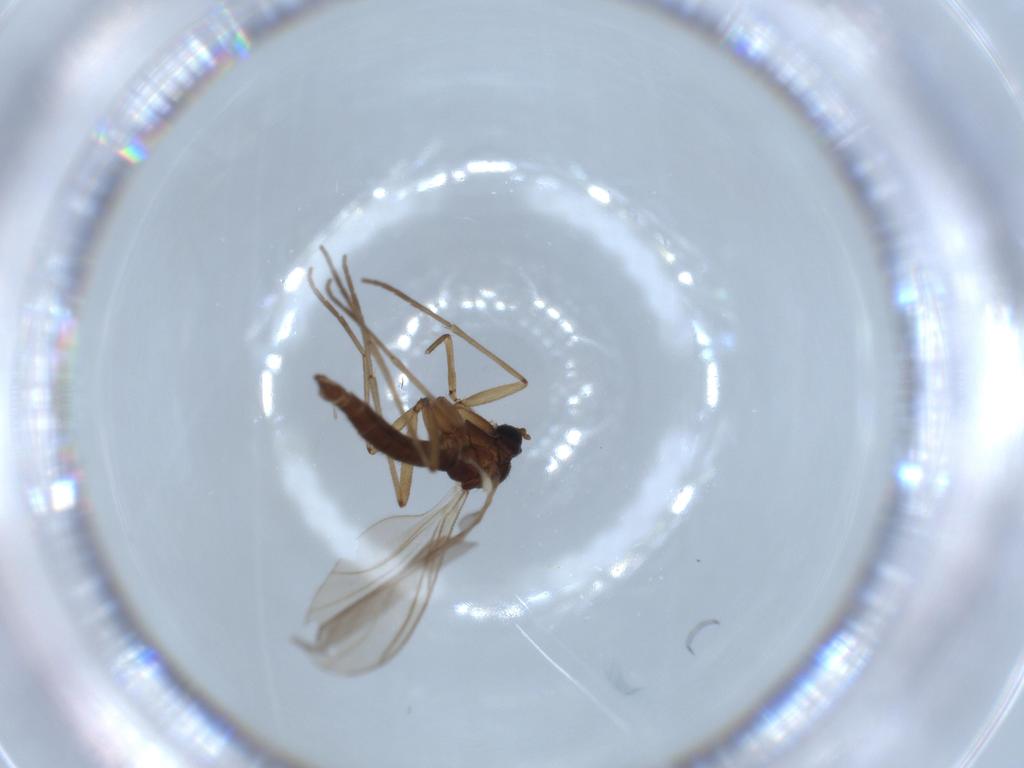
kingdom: Animalia
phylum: Arthropoda
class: Insecta
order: Diptera
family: Sciaridae
